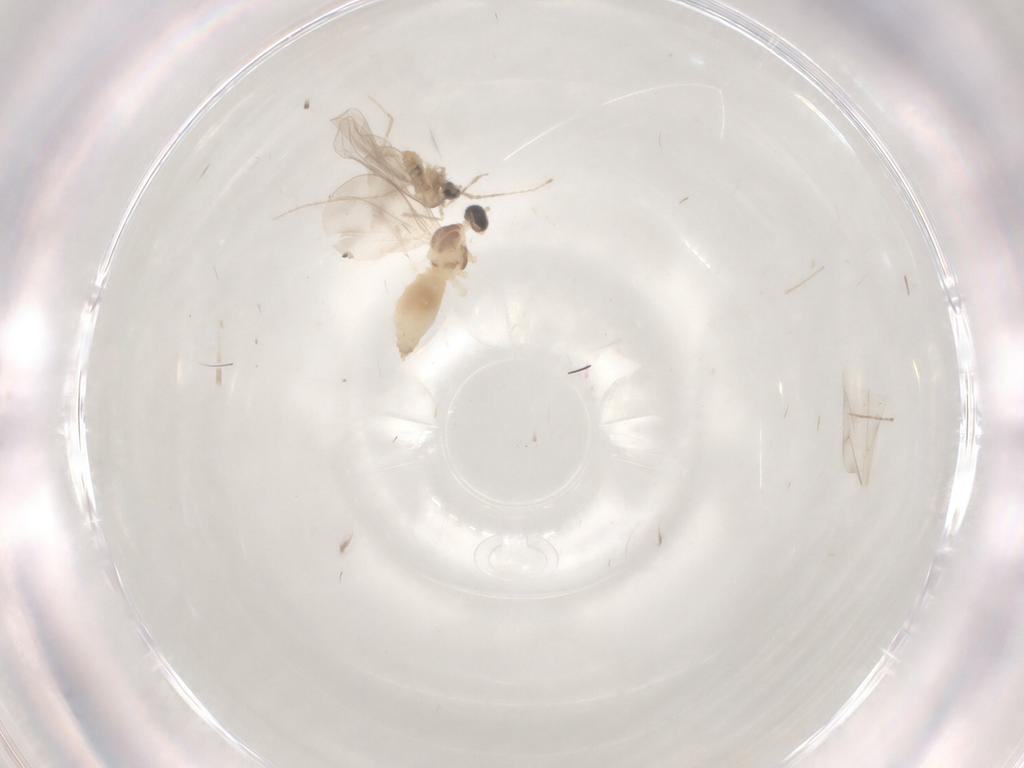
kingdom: Animalia
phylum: Arthropoda
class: Insecta
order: Diptera
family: Cecidomyiidae
